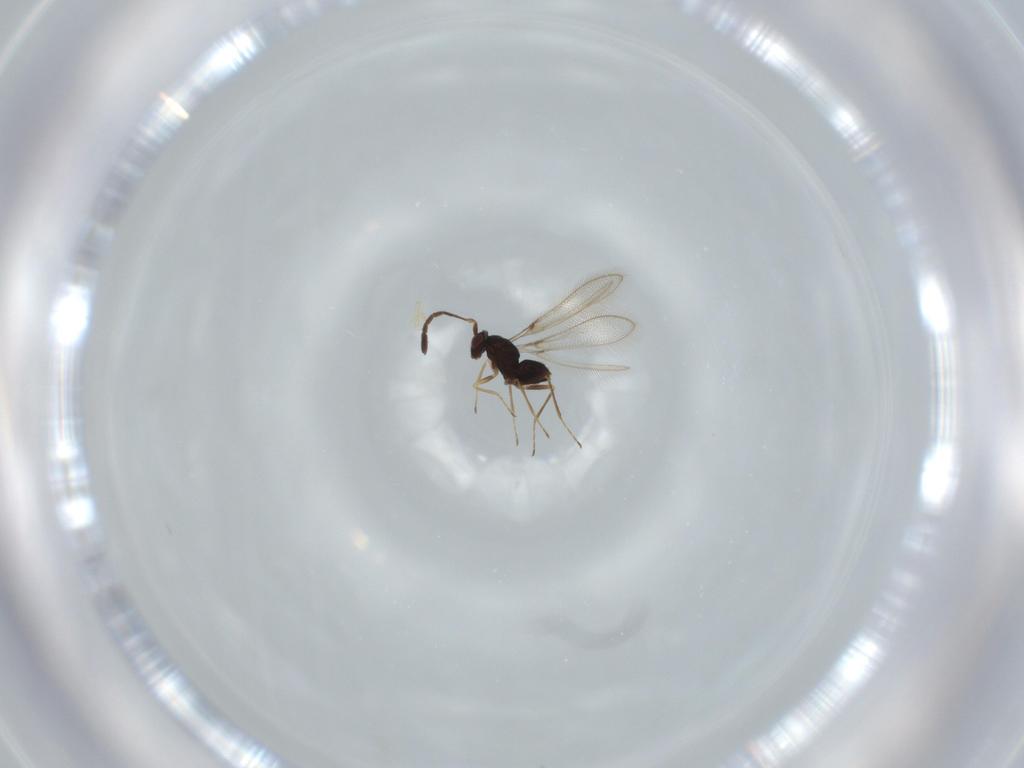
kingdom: Animalia
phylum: Arthropoda
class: Insecta
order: Hymenoptera
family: Mymaridae
